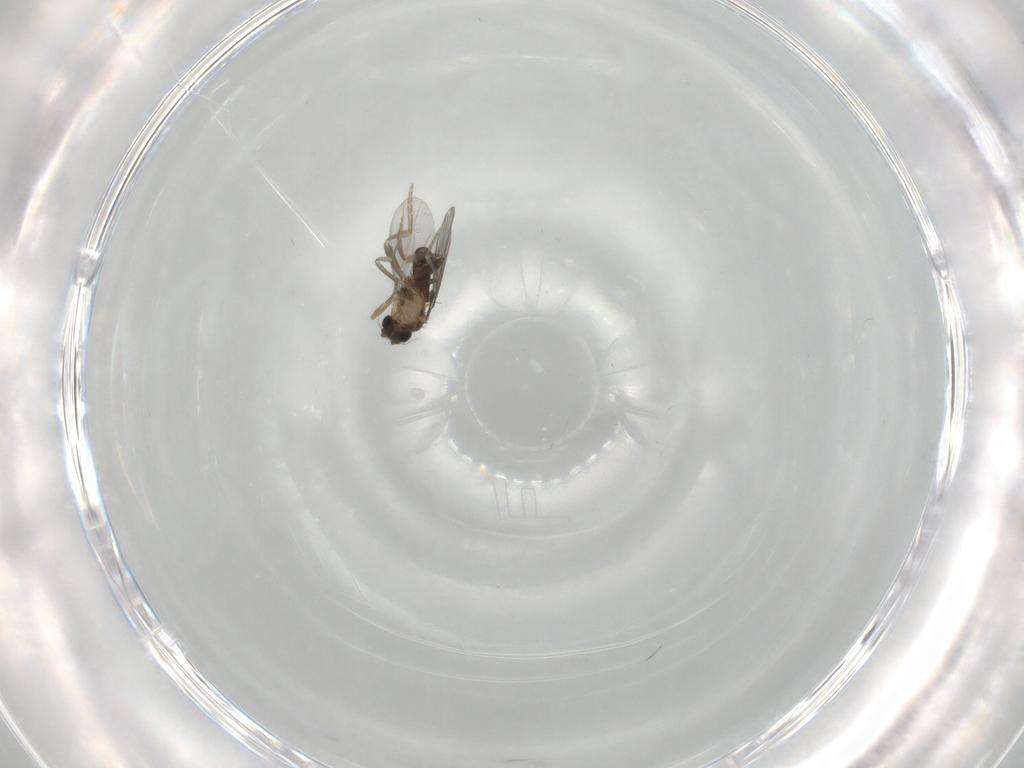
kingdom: Animalia
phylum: Arthropoda
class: Insecta
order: Diptera
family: Sciaridae
